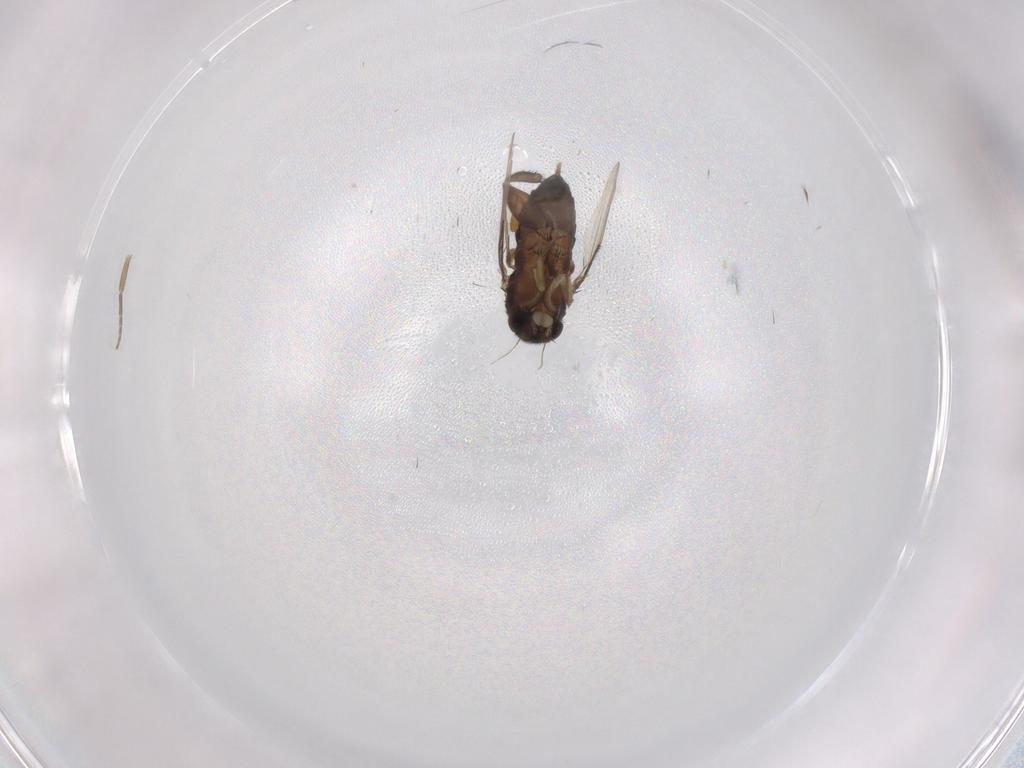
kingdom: Animalia
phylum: Arthropoda
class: Insecta
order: Diptera
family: Phoridae
